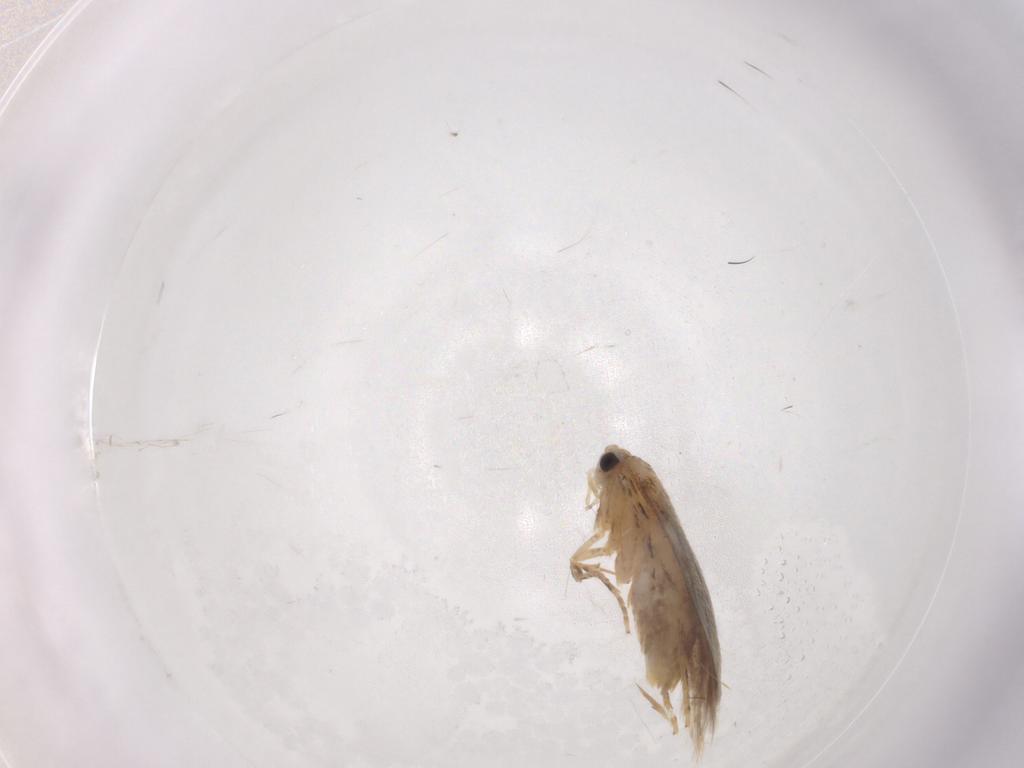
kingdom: Animalia
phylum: Arthropoda
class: Insecta
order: Lepidoptera
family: Tineidae
